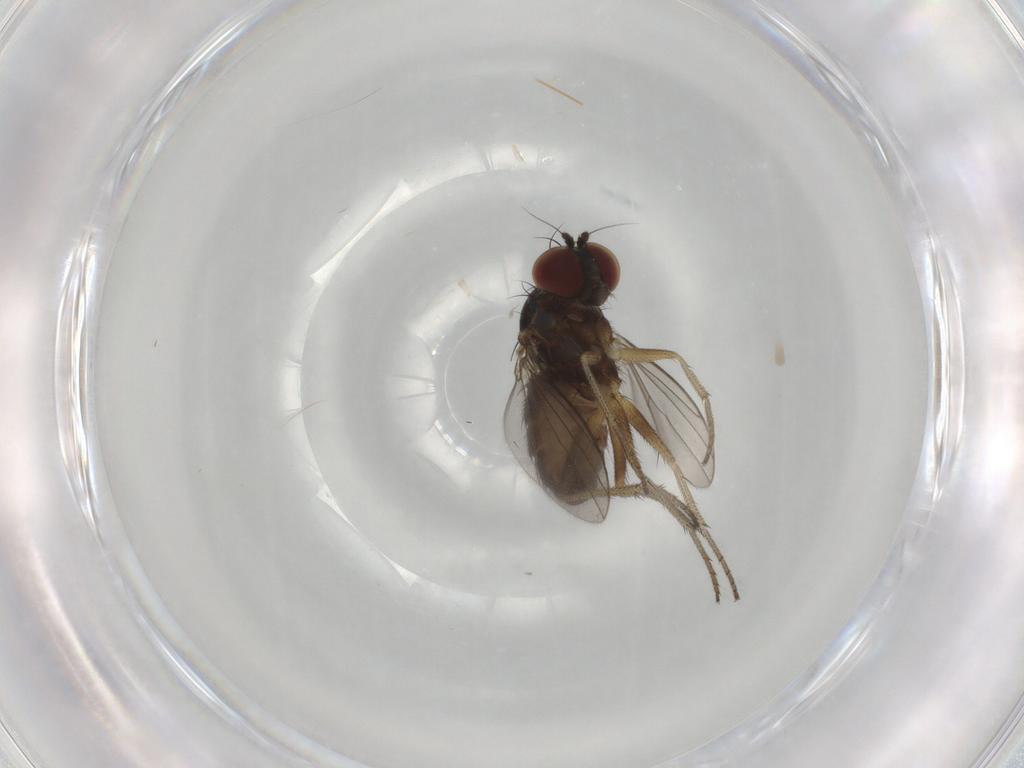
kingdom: Animalia
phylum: Arthropoda
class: Insecta
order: Diptera
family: Dolichopodidae
